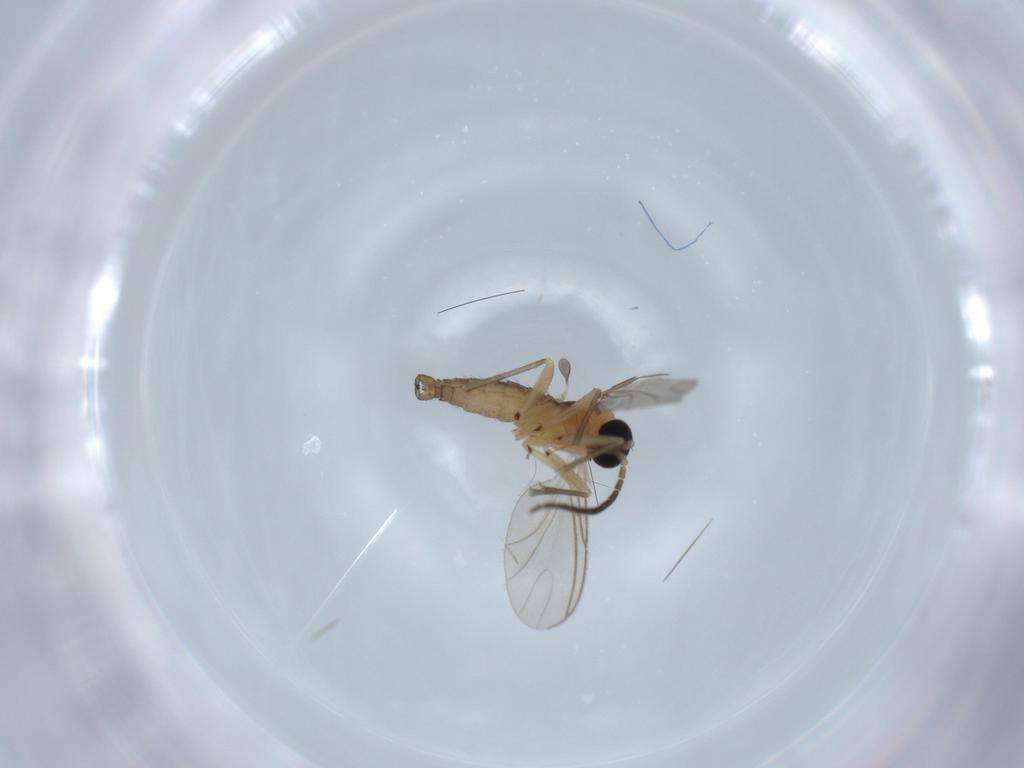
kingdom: Animalia
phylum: Arthropoda
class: Insecta
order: Diptera
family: Sciaridae
